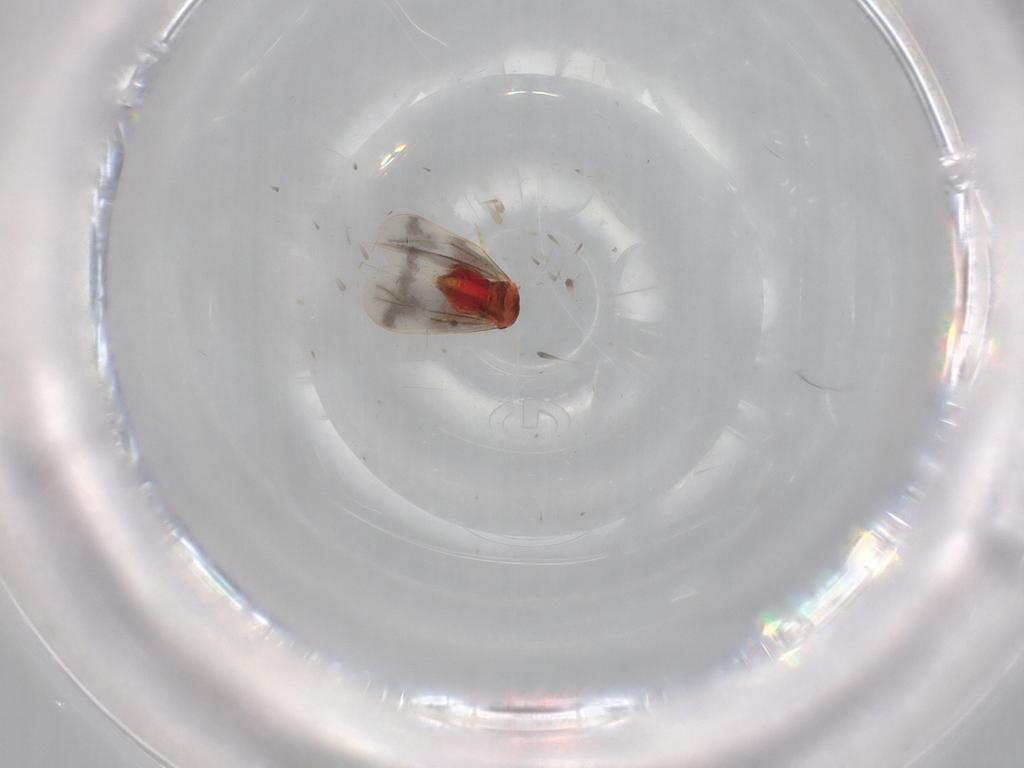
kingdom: Animalia
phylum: Arthropoda
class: Insecta
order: Hemiptera
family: Aleyrodidae
